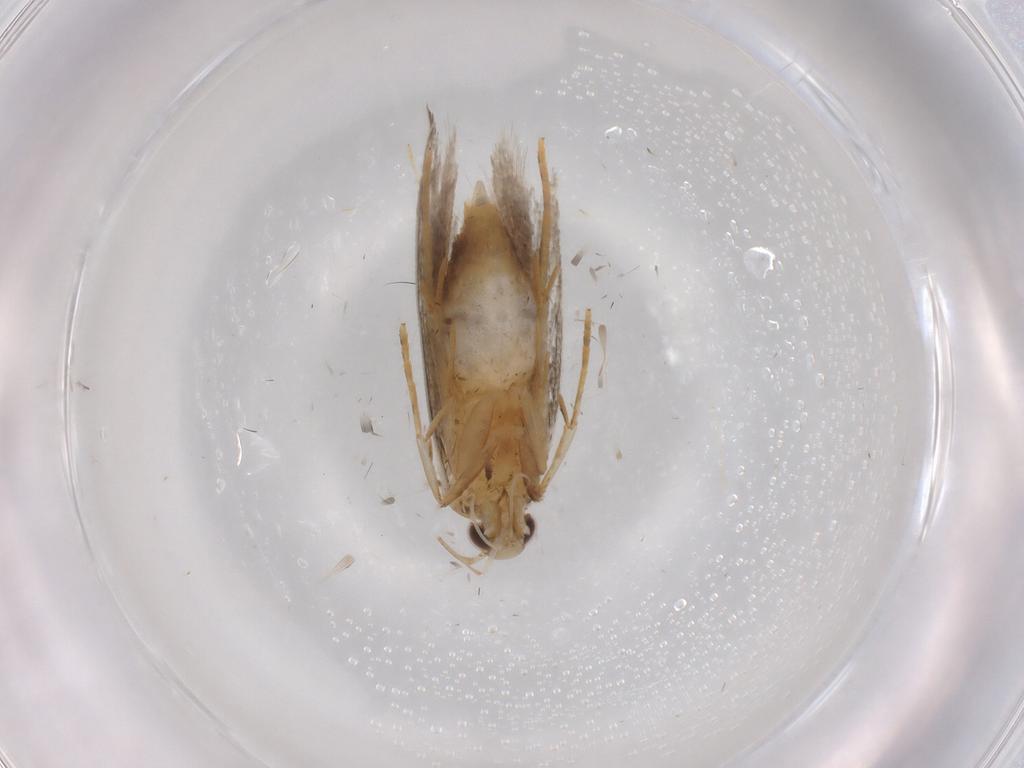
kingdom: Animalia
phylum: Arthropoda
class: Insecta
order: Lepidoptera
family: Autostichidae
